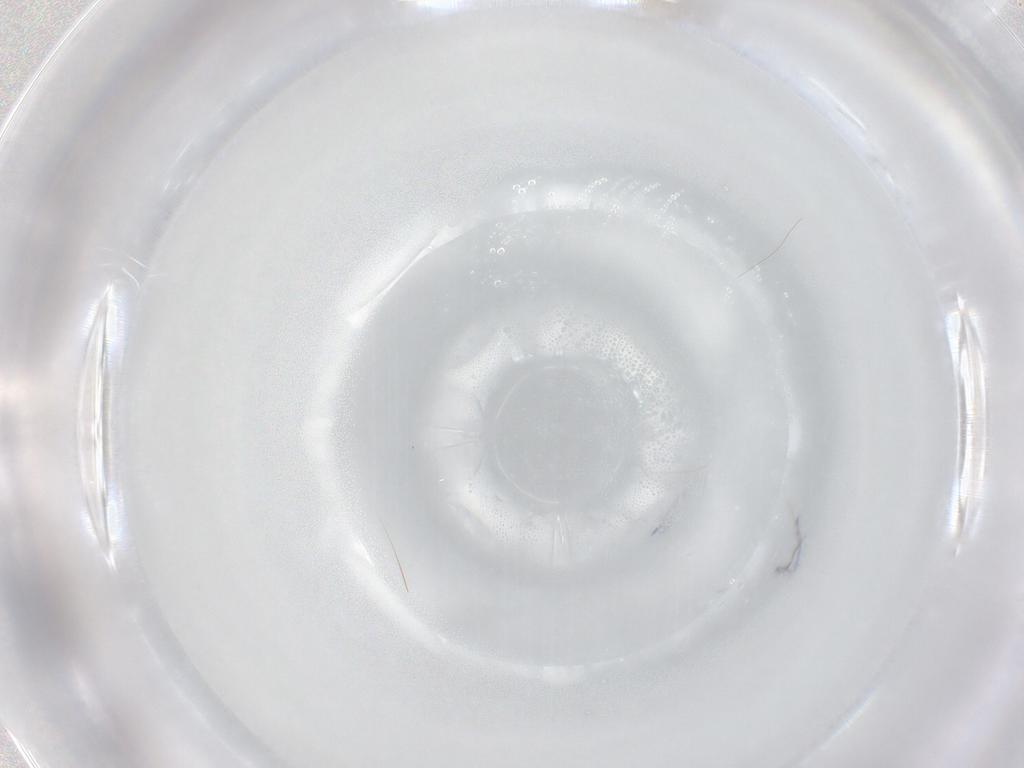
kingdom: Animalia
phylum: Arthropoda
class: Insecta
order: Diptera
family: Cecidomyiidae
